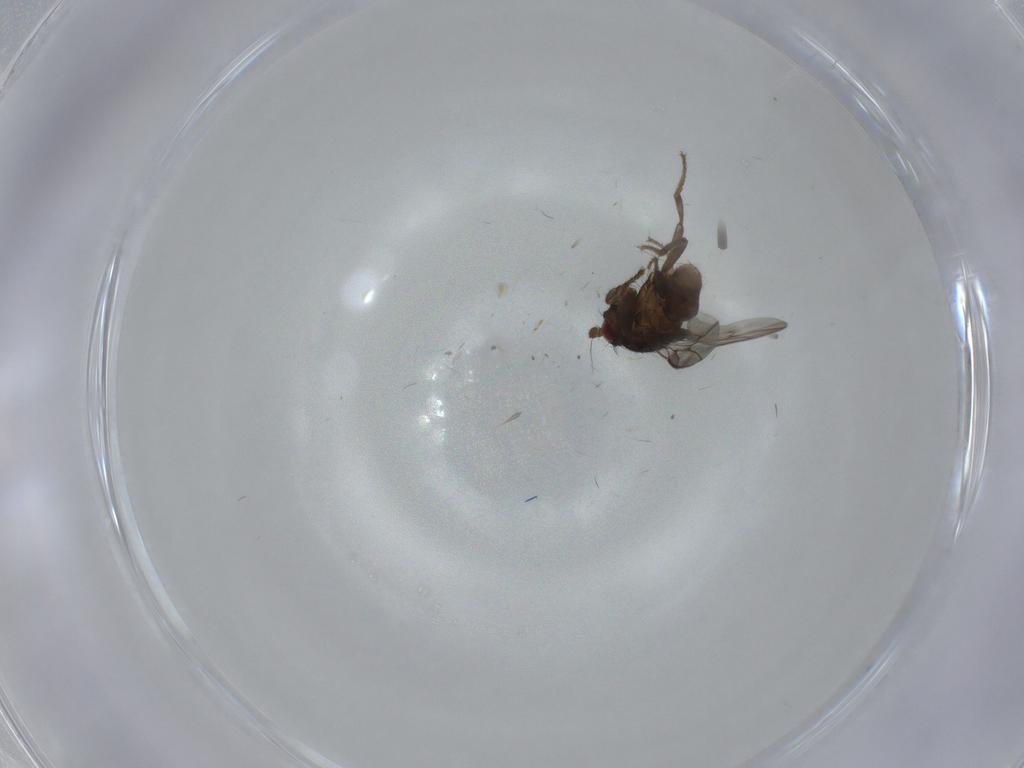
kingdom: Animalia
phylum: Arthropoda
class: Insecta
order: Diptera
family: Sphaeroceridae
